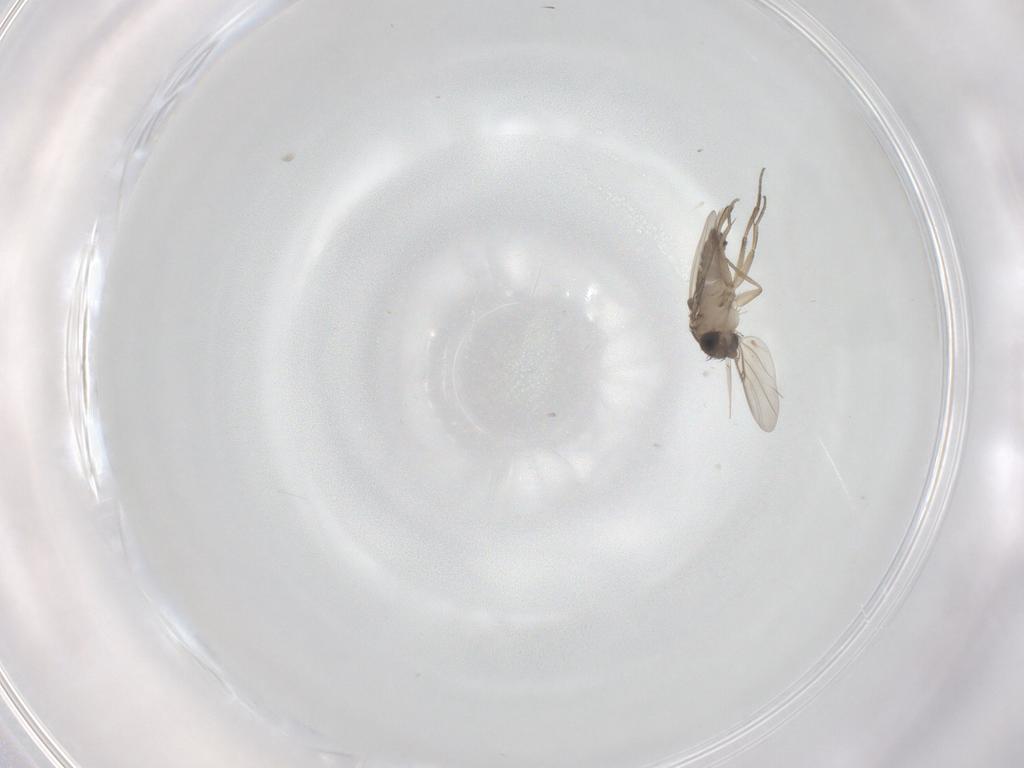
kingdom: Animalia
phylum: Arthropoda
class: Insecta
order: Diptera
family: Phoridae
